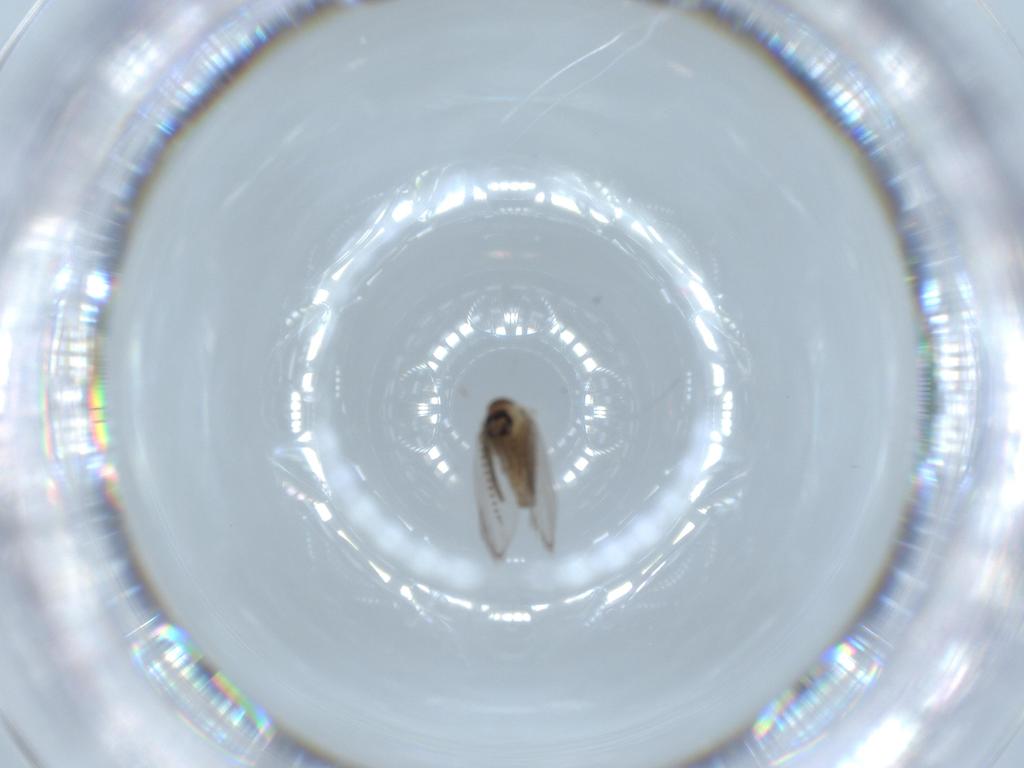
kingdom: Animalia
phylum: Arthropoda
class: Insecta
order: Diptera
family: Psychodidae
